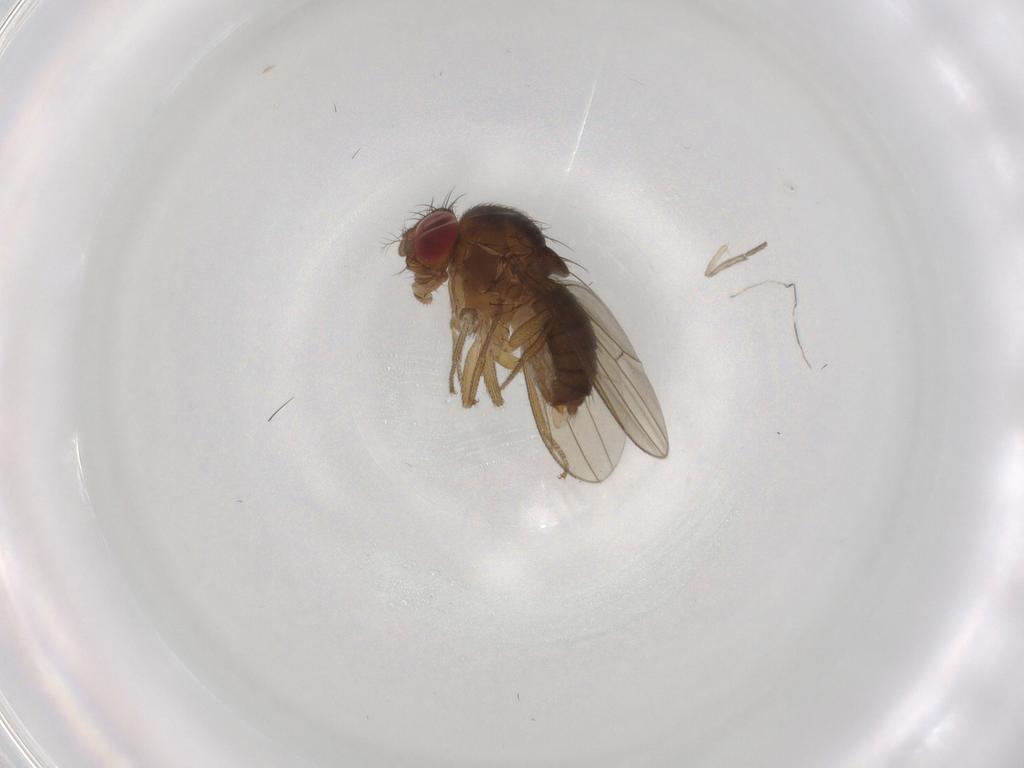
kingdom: Animalia
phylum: Arthropoda
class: Insecta
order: Diptera
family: Drosophilidae
